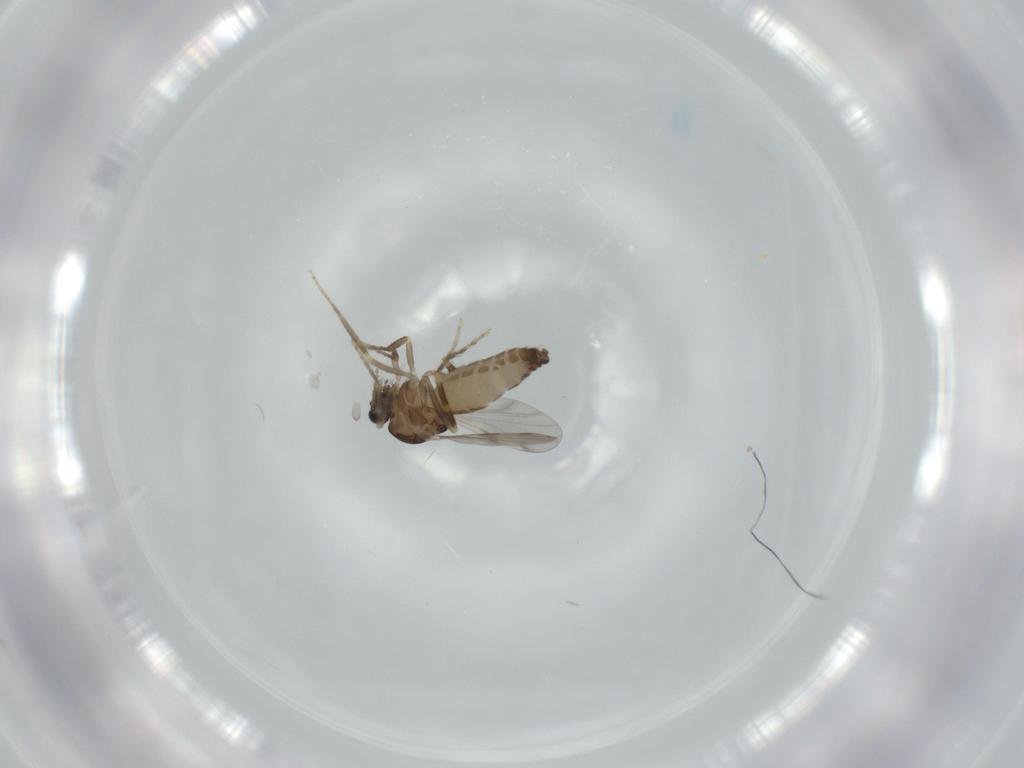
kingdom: Animalia
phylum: Arthropoda
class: Insecta
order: Diptera
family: Ceratopogonidae
